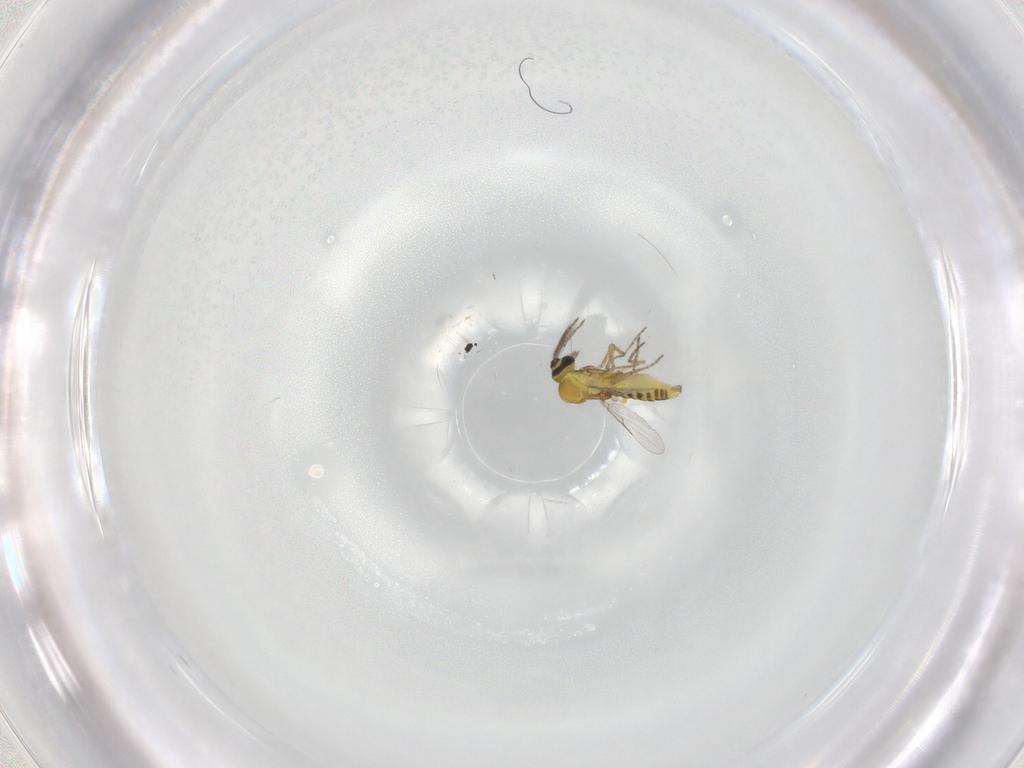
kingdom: Animalia
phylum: Arthropoda
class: Insecta
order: Diptera
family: Ceratopogonidae
